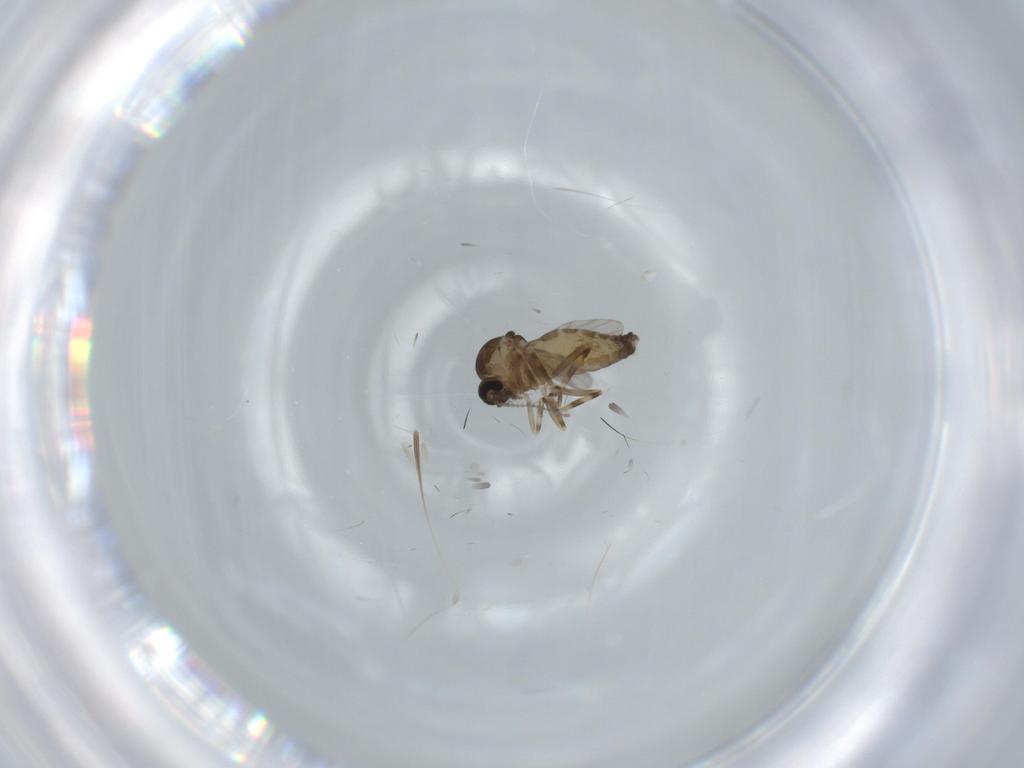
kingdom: Animalia
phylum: Arthropoda
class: Insecta
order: Diptera
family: Ceratopogonidae
